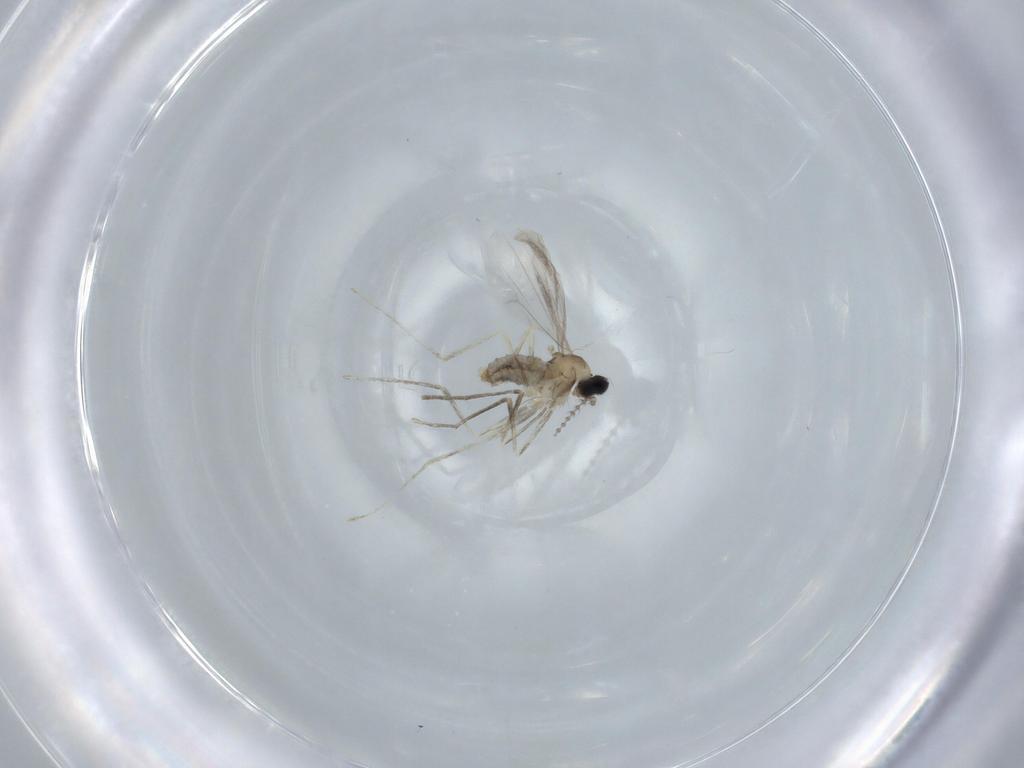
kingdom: Animalia
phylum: Arthropoda
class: Insecta
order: Diptera
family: Cecidomyiidae
